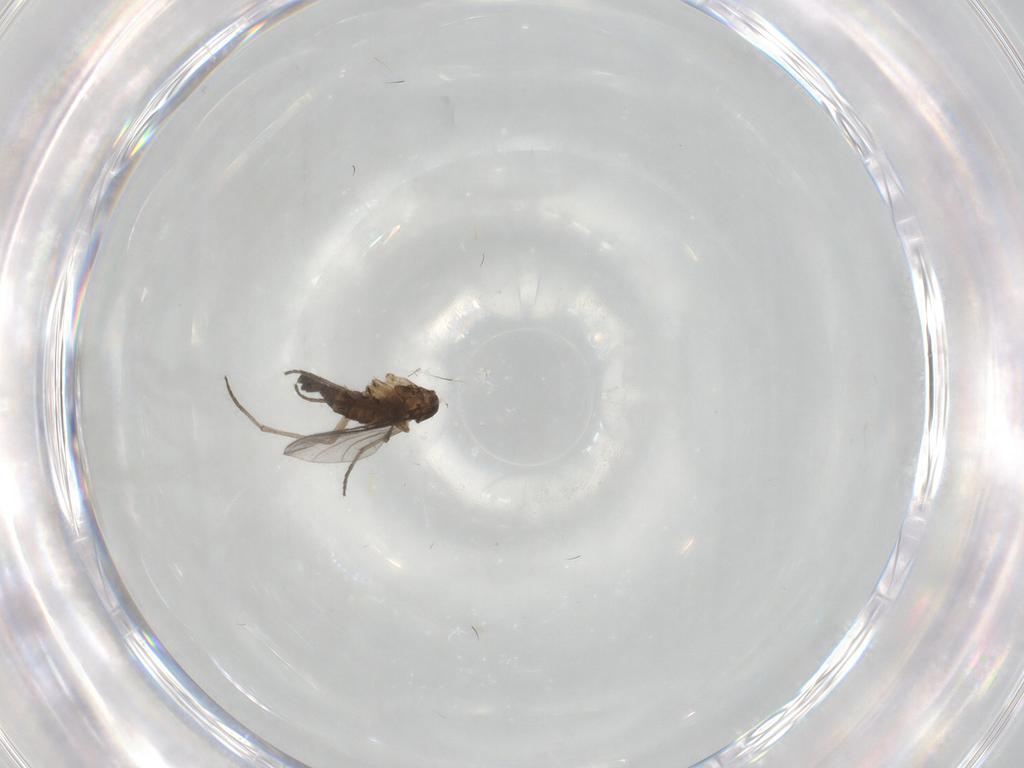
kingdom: Animalia
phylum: Arthropoda
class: Insecta
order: Diptera
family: Sciaridae
